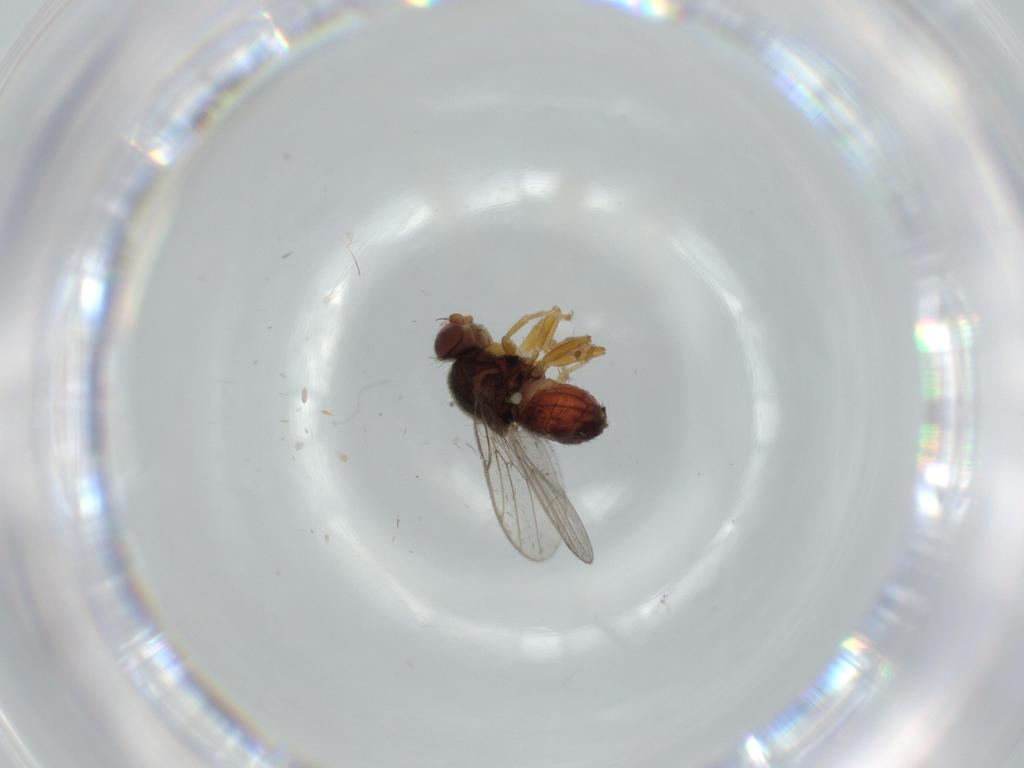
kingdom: Animalia
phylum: Arthropoda
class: Insecta
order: Diptera
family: Chloropidae
